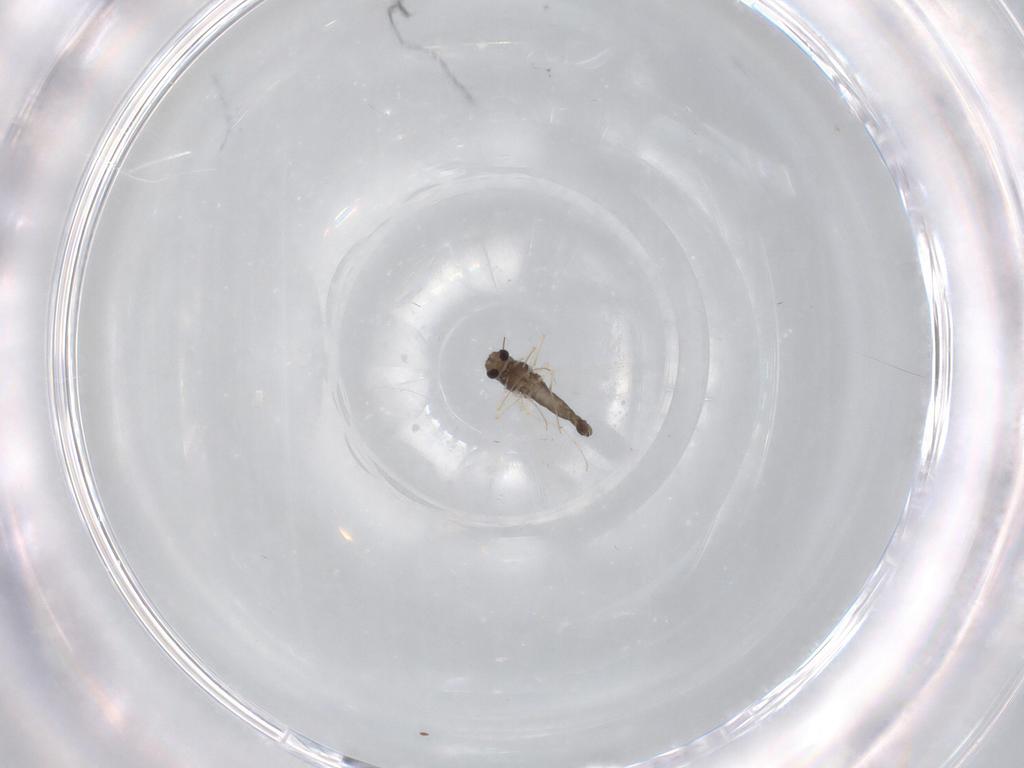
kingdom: Animalia
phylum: Arthropoda
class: Insecta
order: Diptera
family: Chironomidae
